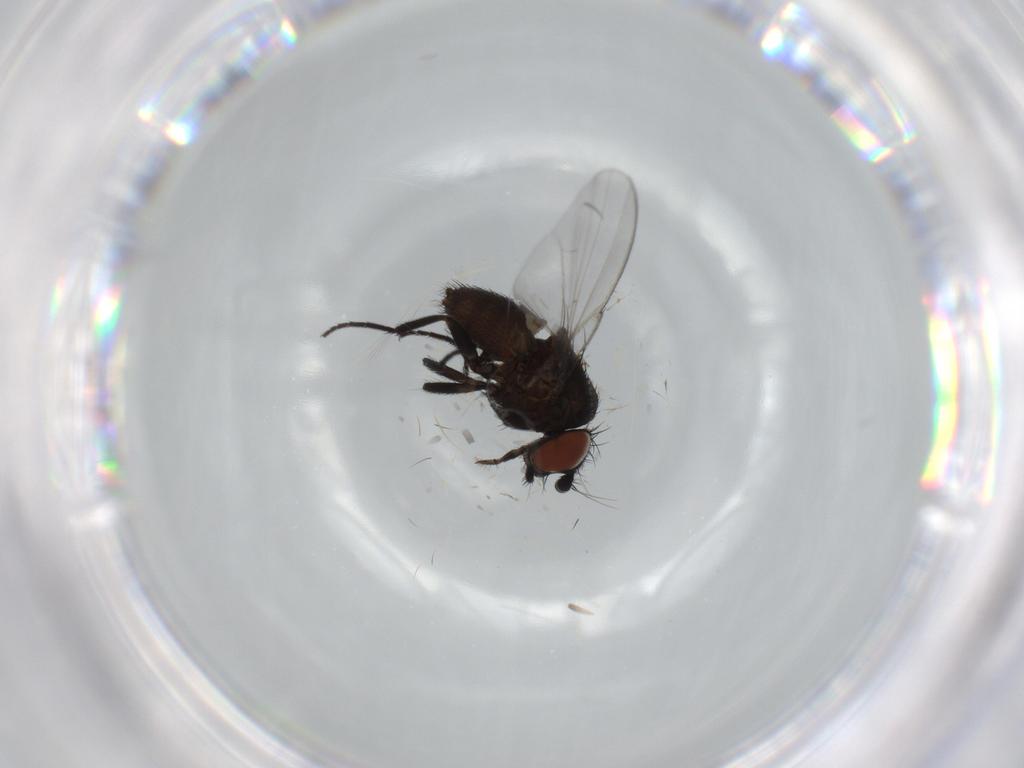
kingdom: Animalia
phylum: Arthropoda
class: Insecta
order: Diptera
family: Milichiidae
